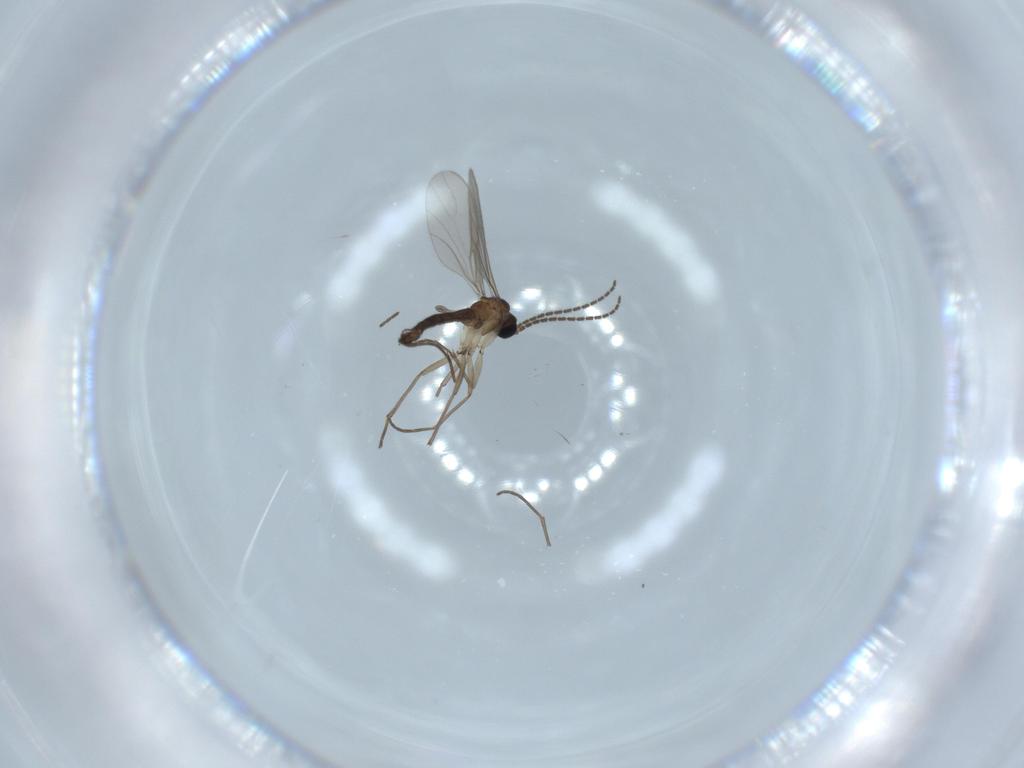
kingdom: Animalia
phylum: Arthropoda
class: Insecta
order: Diptera
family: Sciaridae
